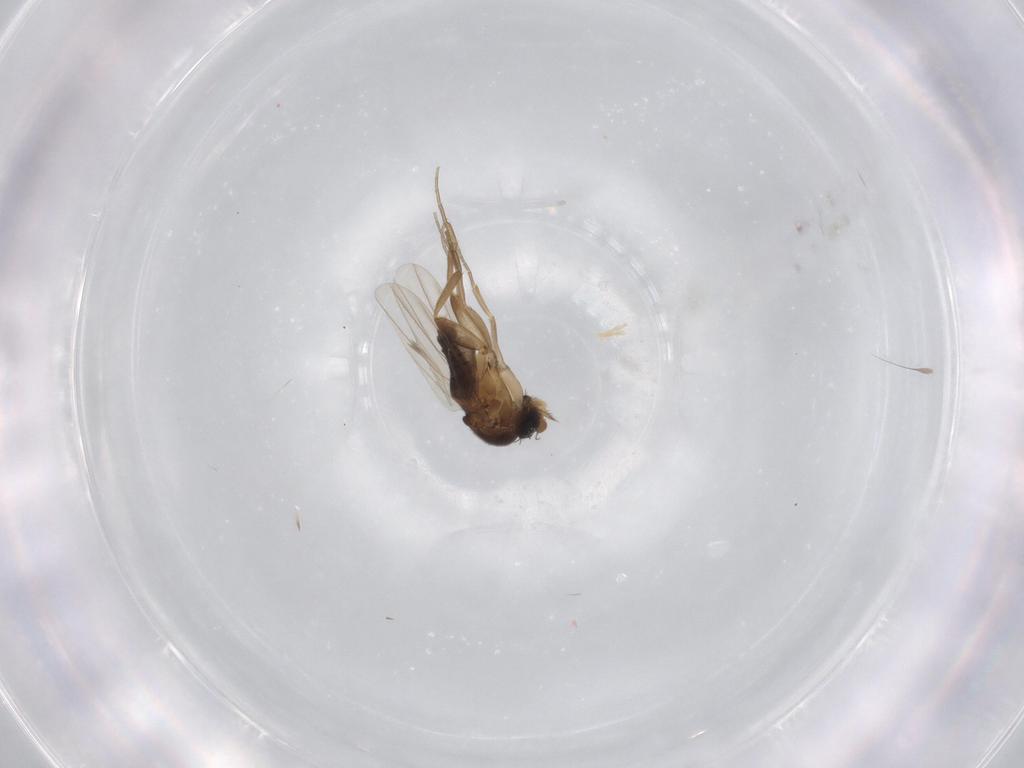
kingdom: Animalia
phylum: Arthropoda
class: Insecta
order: Diptera
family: Phoridae
